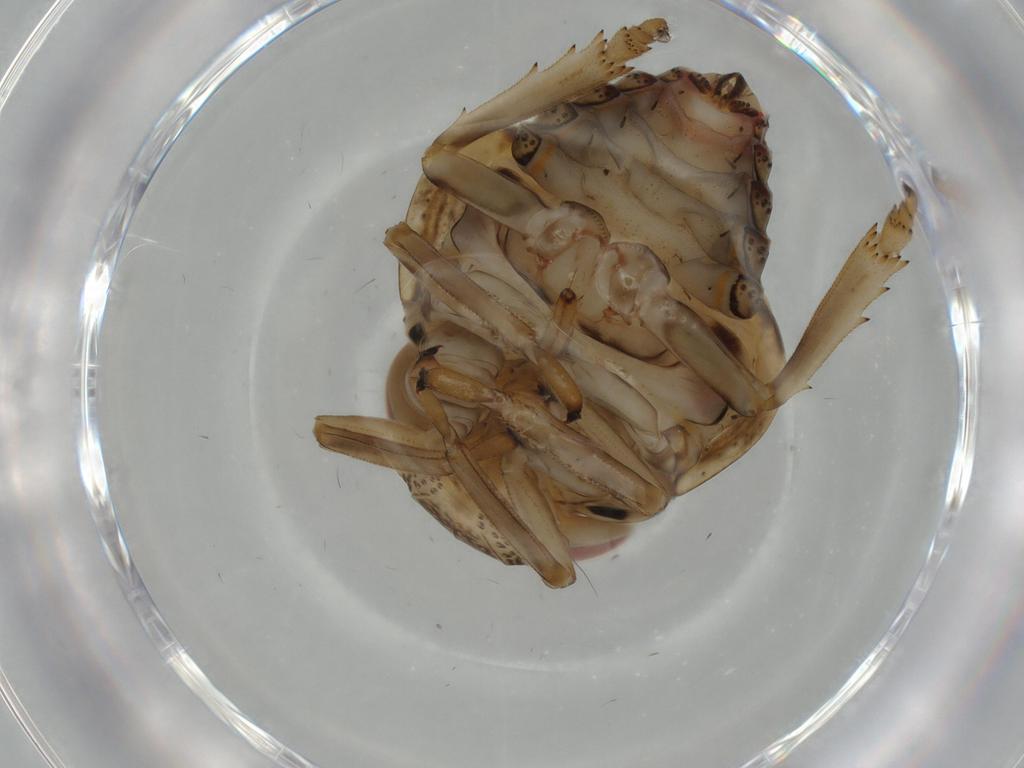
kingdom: Animalia
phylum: Arthropoda
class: Insecta
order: Hemiptera
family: Issidae
